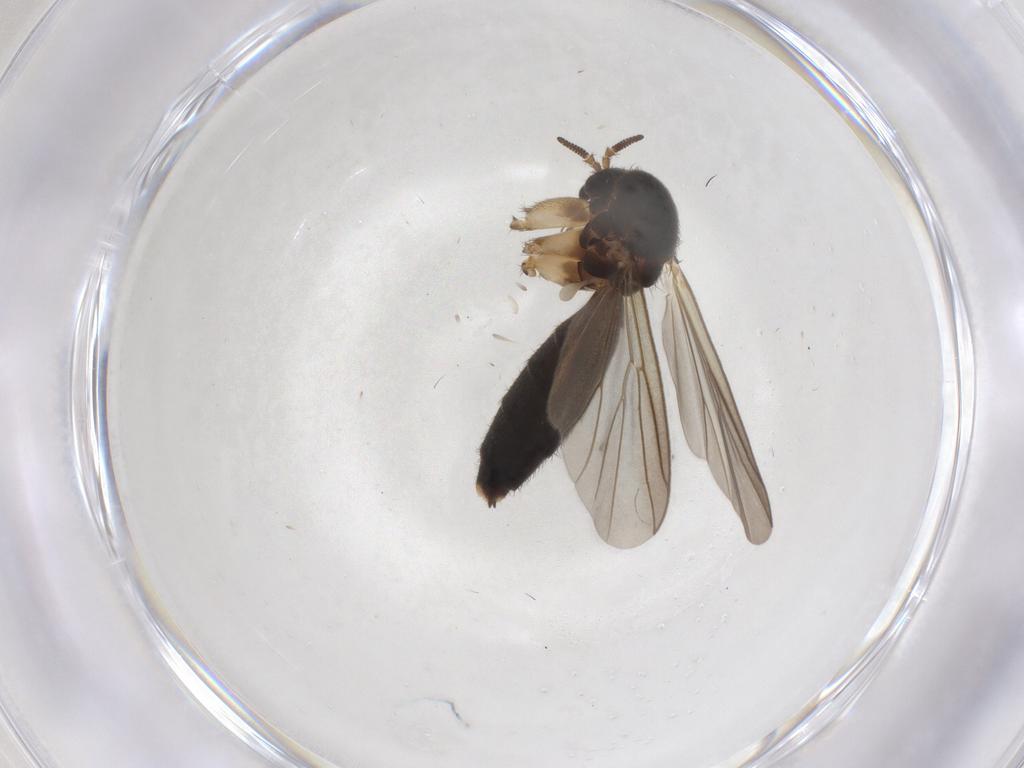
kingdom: Animalia
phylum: Arthropoda
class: Insecta
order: Diptera
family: Mycetophilidae
